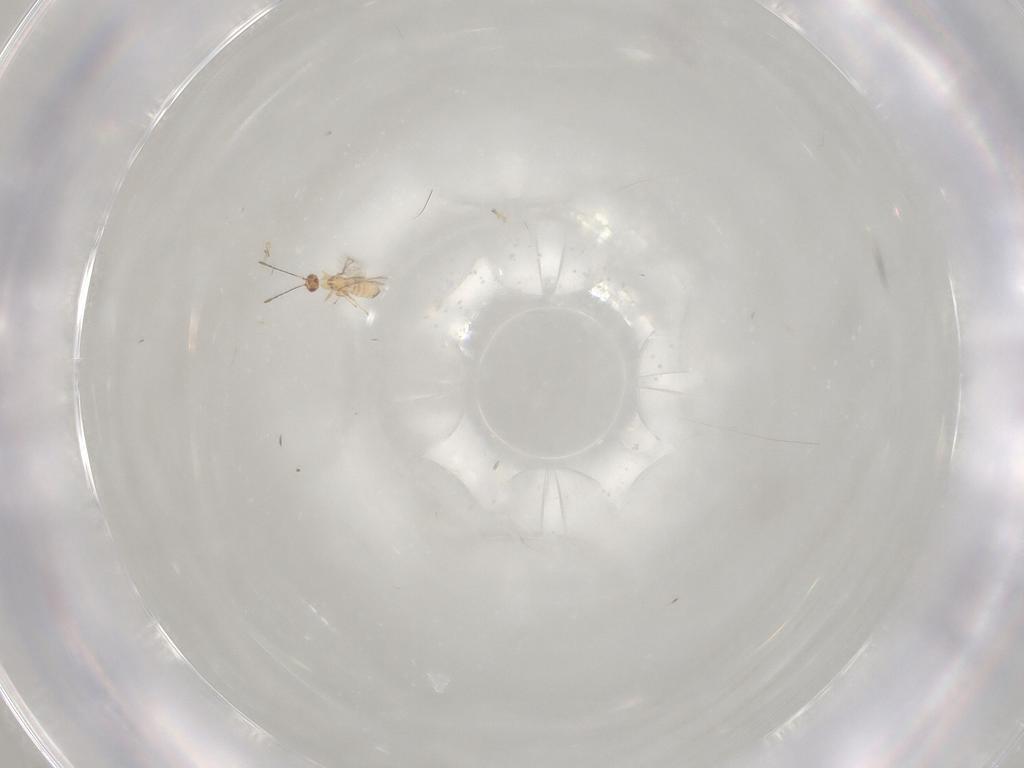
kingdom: Animalia
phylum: Arthropoda
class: Insecta
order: Hymenoptera
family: Mymaridae
